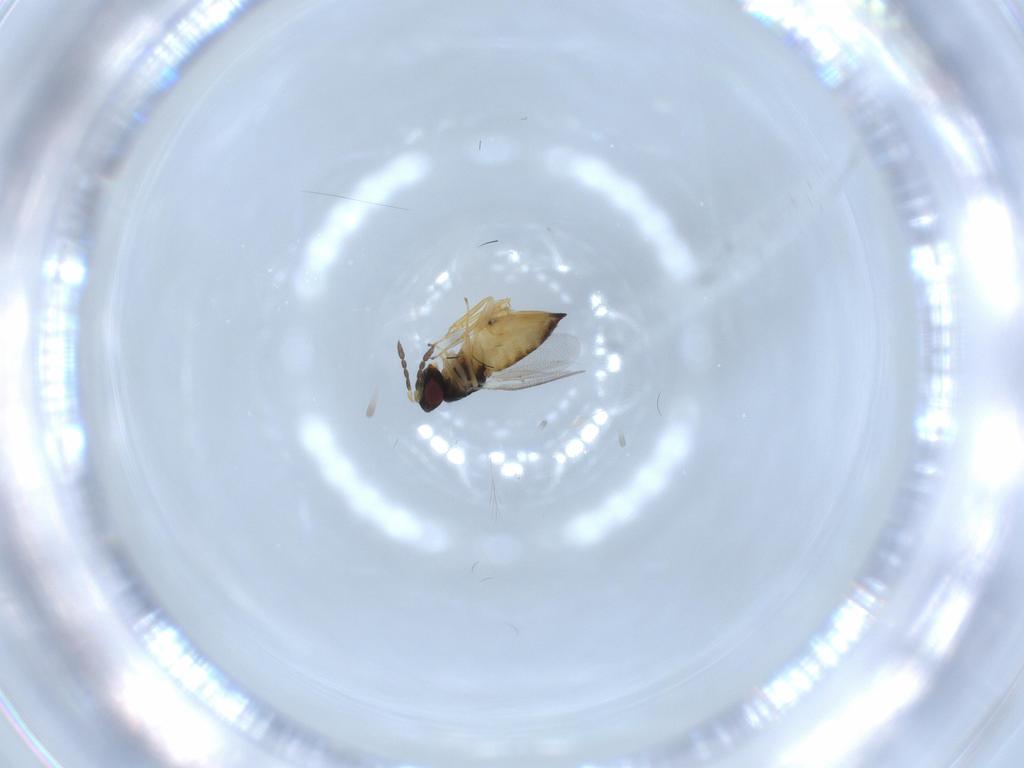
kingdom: Animalia
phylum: Arthropoda
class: Insecta
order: Hymenoptera
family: Eulophidae
